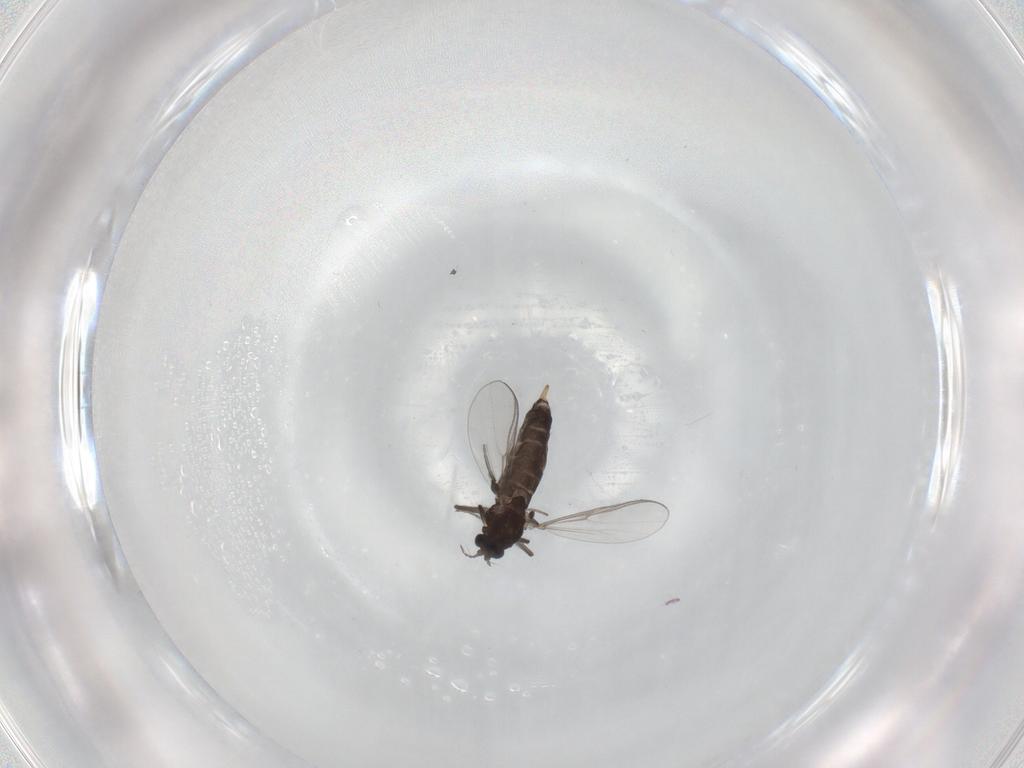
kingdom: Animalia
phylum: Arthropoda
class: Insecta
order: Diptera
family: Chironomidae
